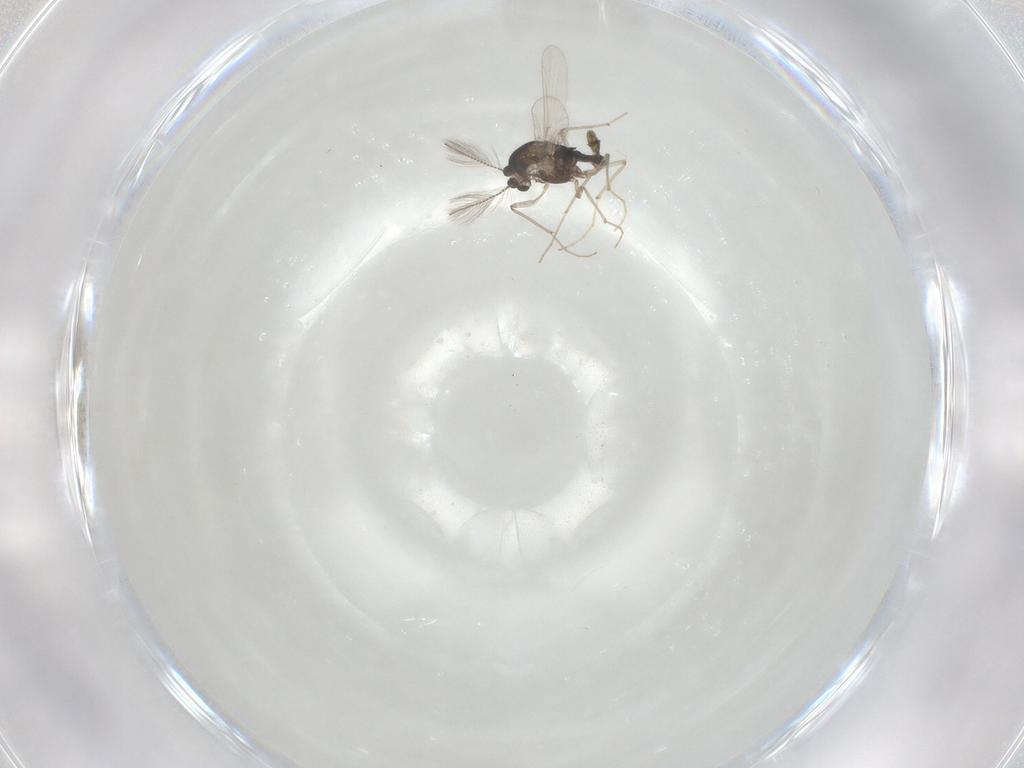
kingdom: Animalia
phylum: Arthropoda
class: Insecta
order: Diptera
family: Chironomidae
